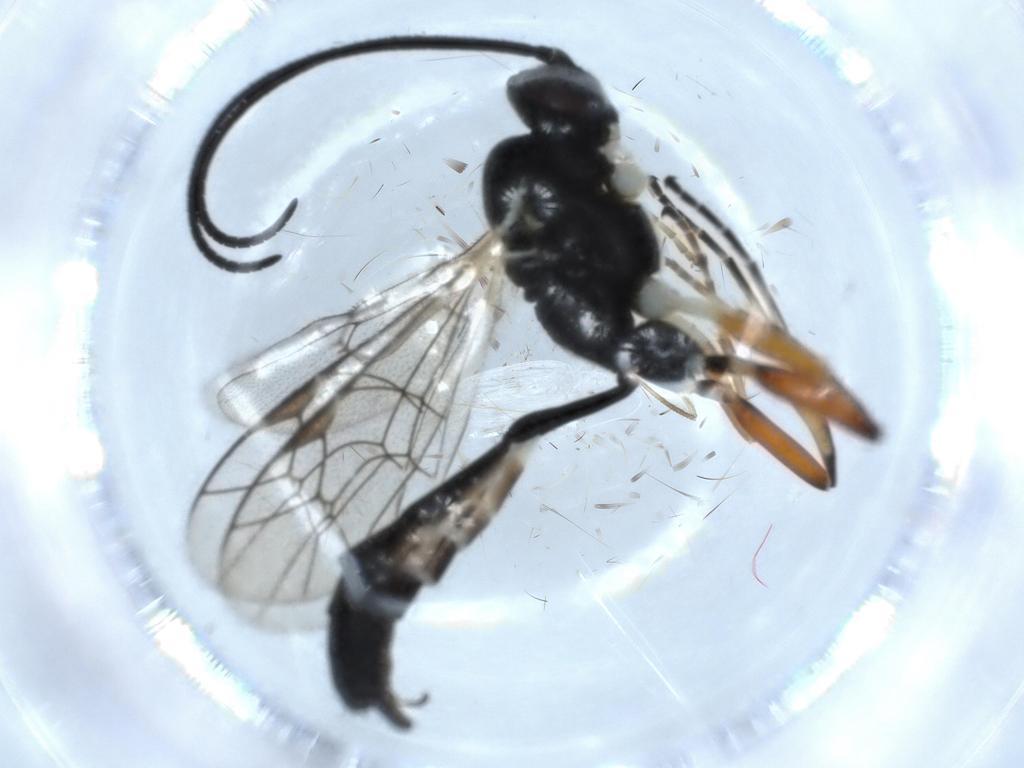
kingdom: Animalia
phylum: Arthropoda
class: Insecta
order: Hymenoptera
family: Ichneumonidae
